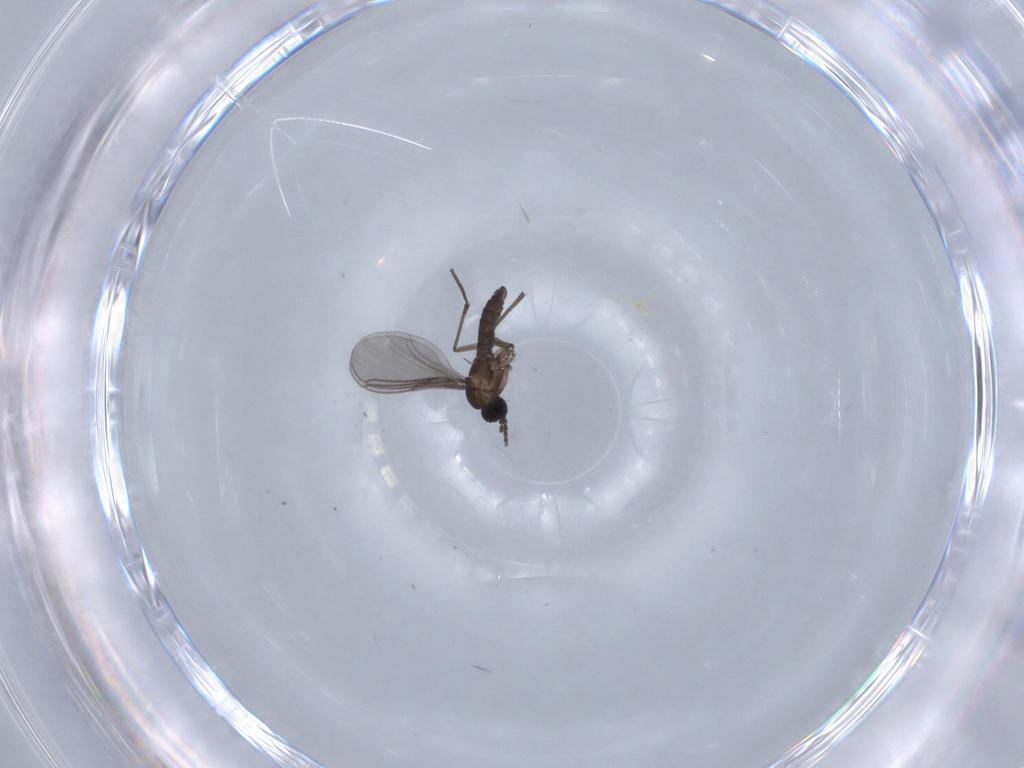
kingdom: Animalia
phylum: Arthropoda
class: Insecta
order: Diptera
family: Sciaridae
